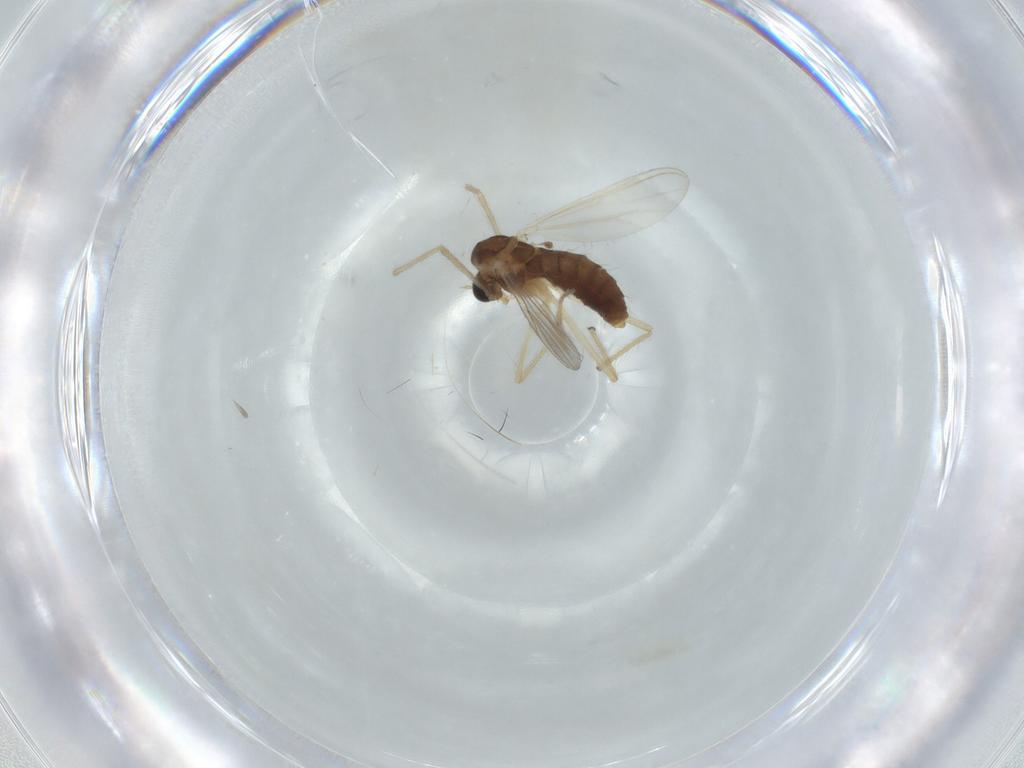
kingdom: Animalia
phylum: Arthropoda
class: Insecta
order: Diptera
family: Chironomidae
